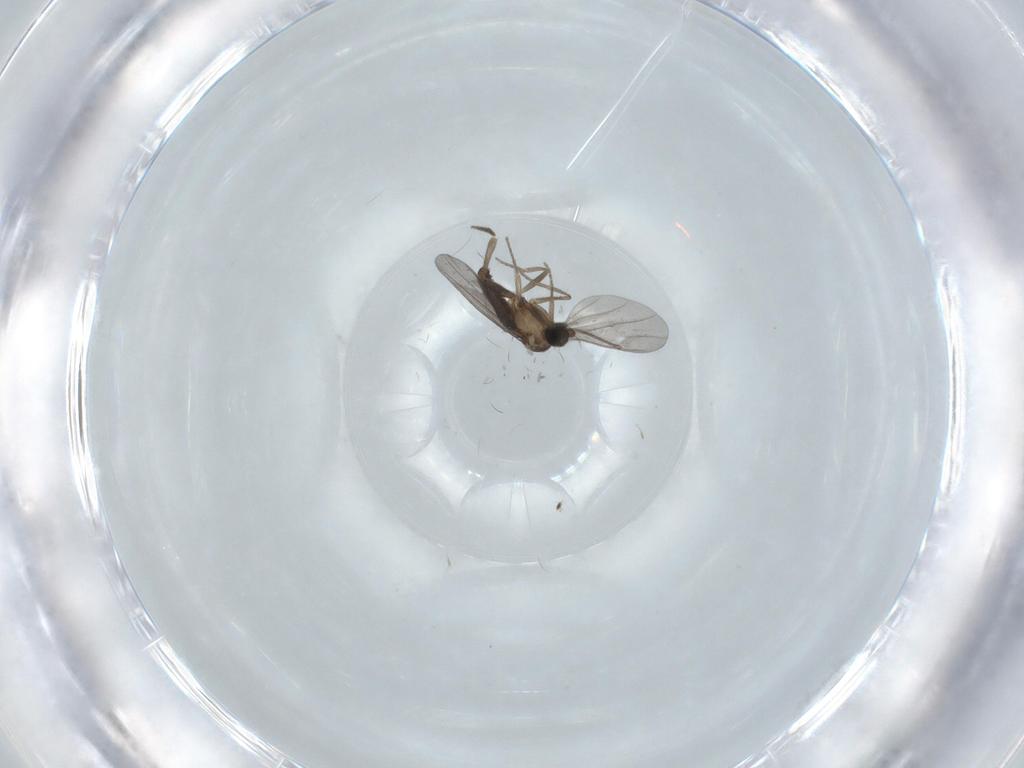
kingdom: Animalia
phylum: Arthropoda
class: Insecta
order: Diptera
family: Phoridae
